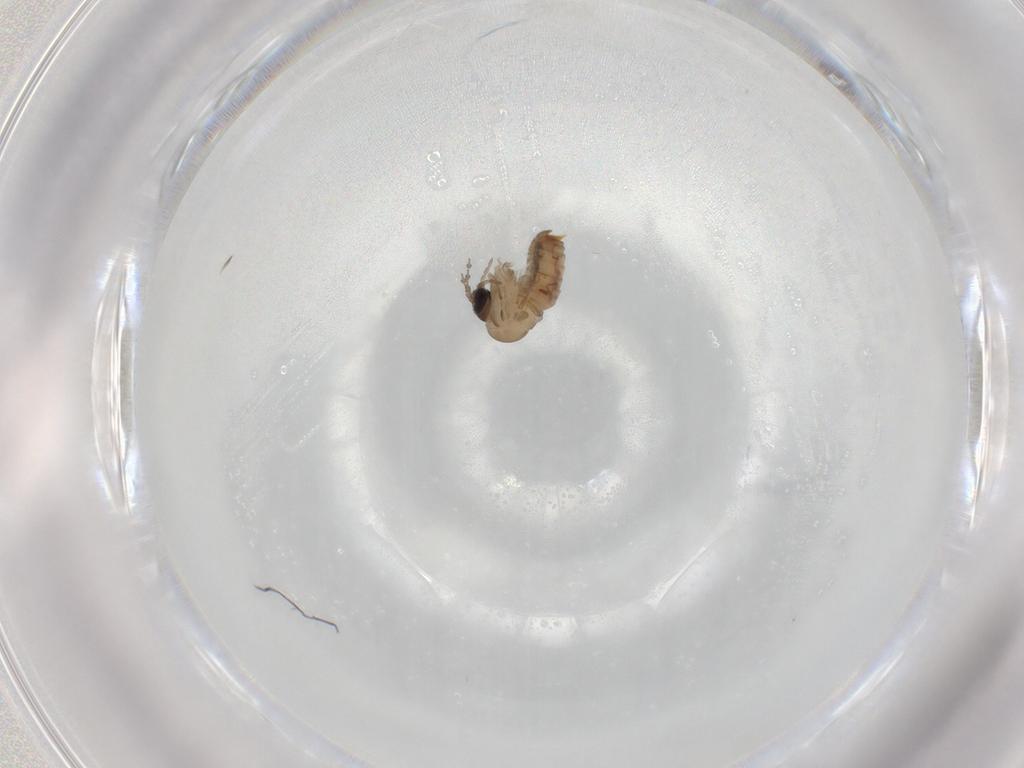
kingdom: Animalia
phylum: Arthropoda
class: Insecta
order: Diptera
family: Psychodidae
